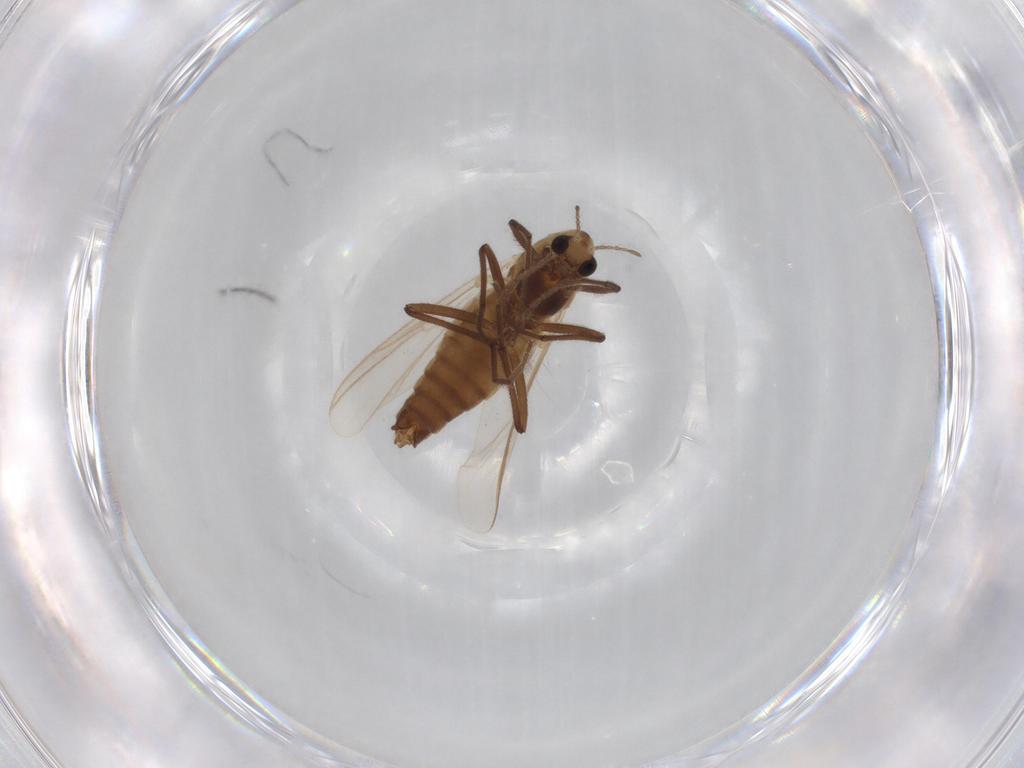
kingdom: Animalia
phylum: Arthropoda
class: Insecta
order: Diptera
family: Chironomidae
